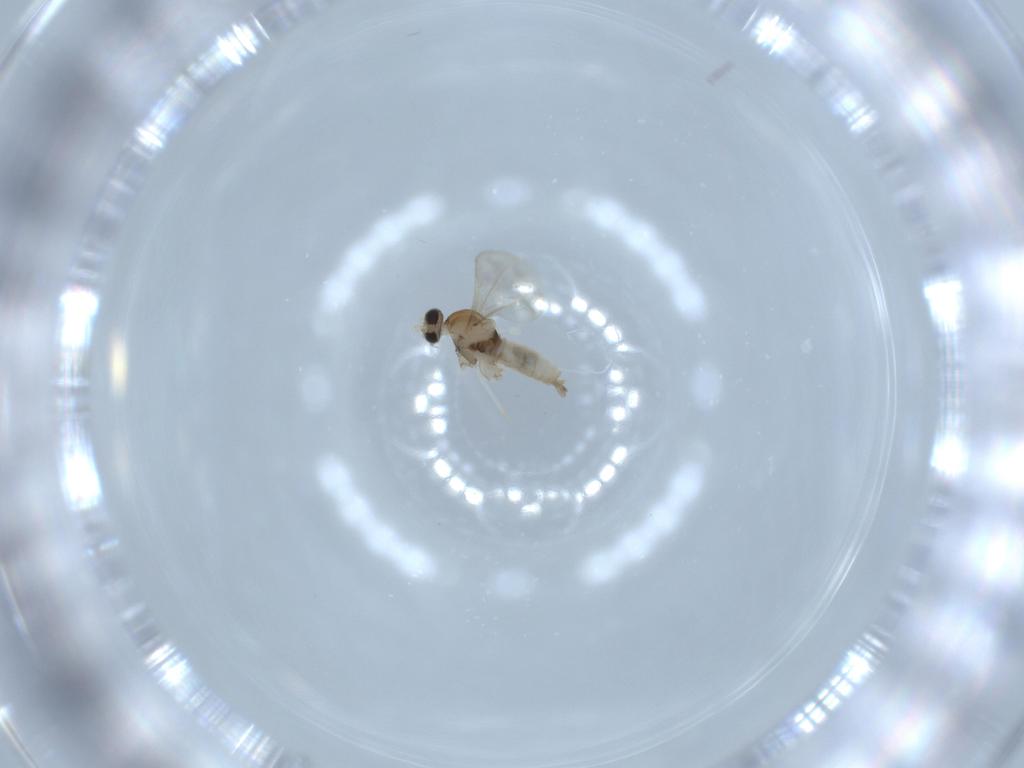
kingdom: Animalia
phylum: Arthropoda
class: Insecta
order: Diptera
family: Cecidomyiidae
